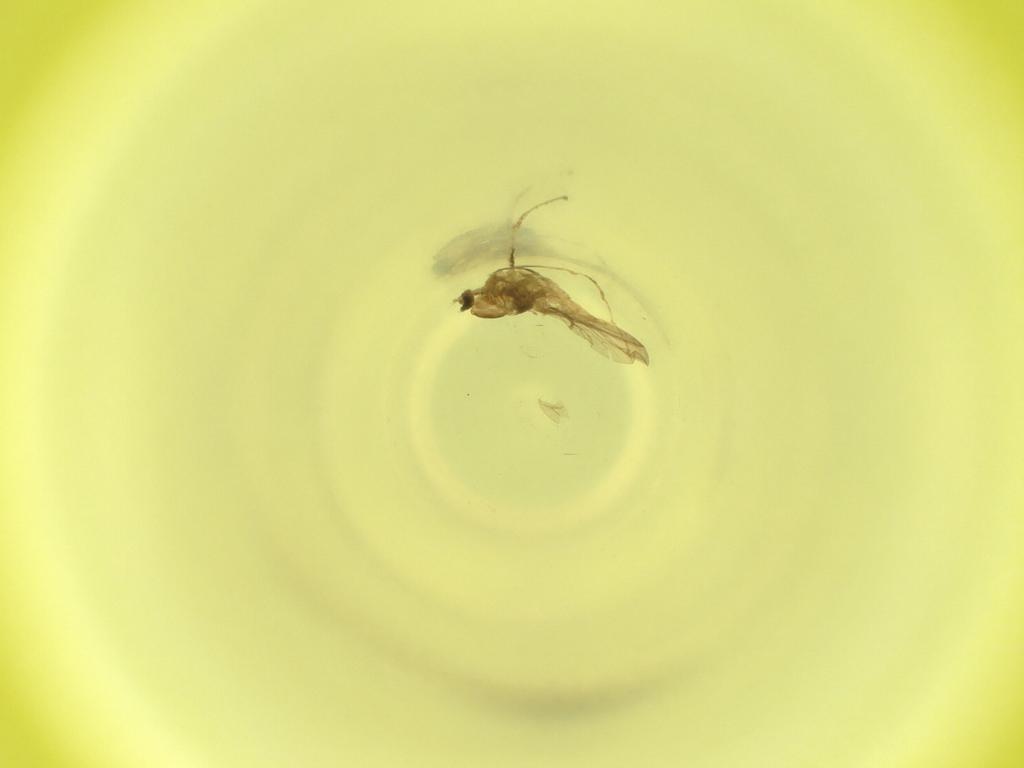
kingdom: Animalia
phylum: Arthropoda
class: Insecta
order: Diptera
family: Cecidomyiidae
